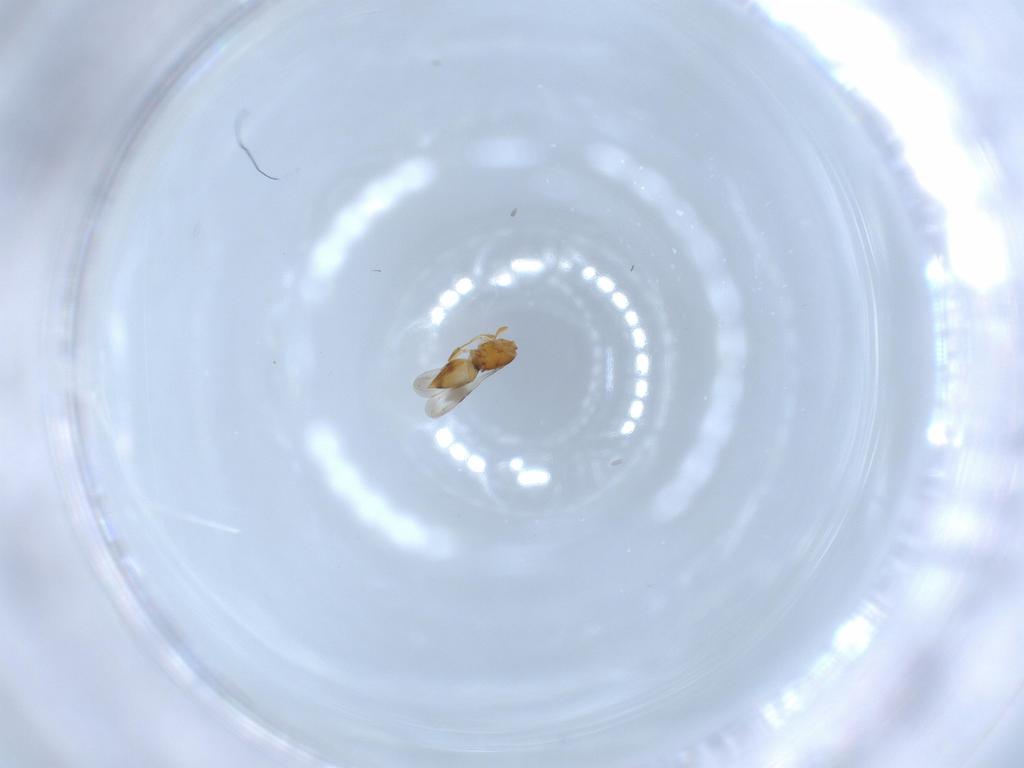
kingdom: Animalia
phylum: Arthropoda
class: Insecta
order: Hymenoptera
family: Ceraphronidae
